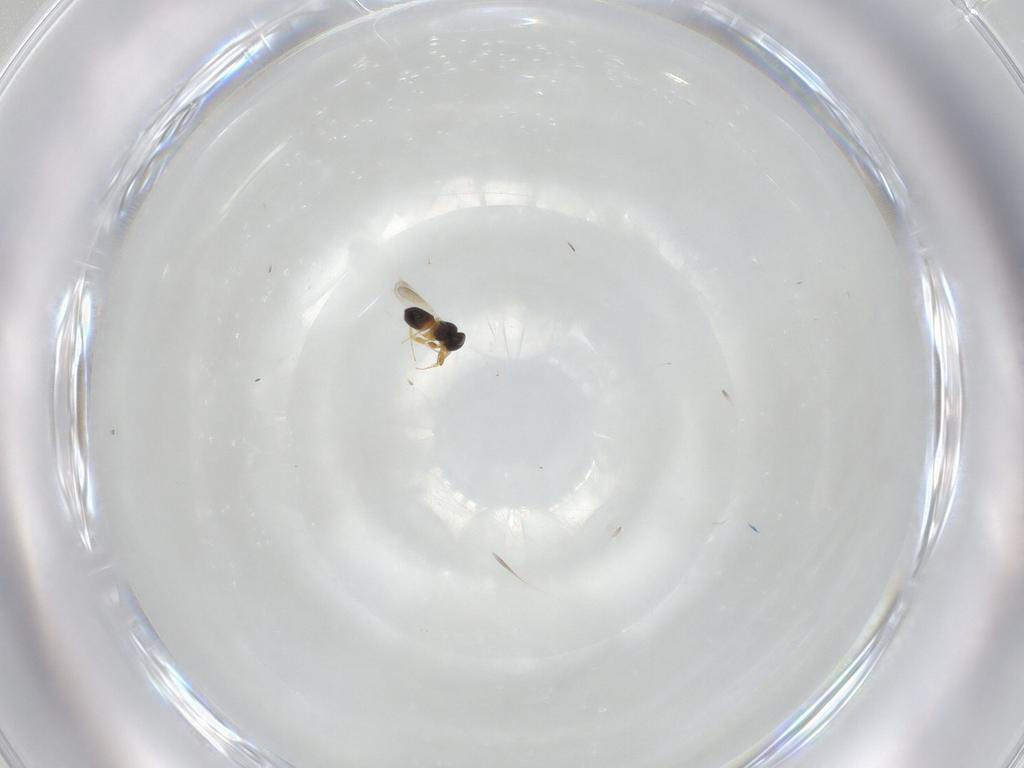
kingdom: Animalia
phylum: Arthropoda
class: Insecta
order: Hymenoptera
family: Platygastridae
